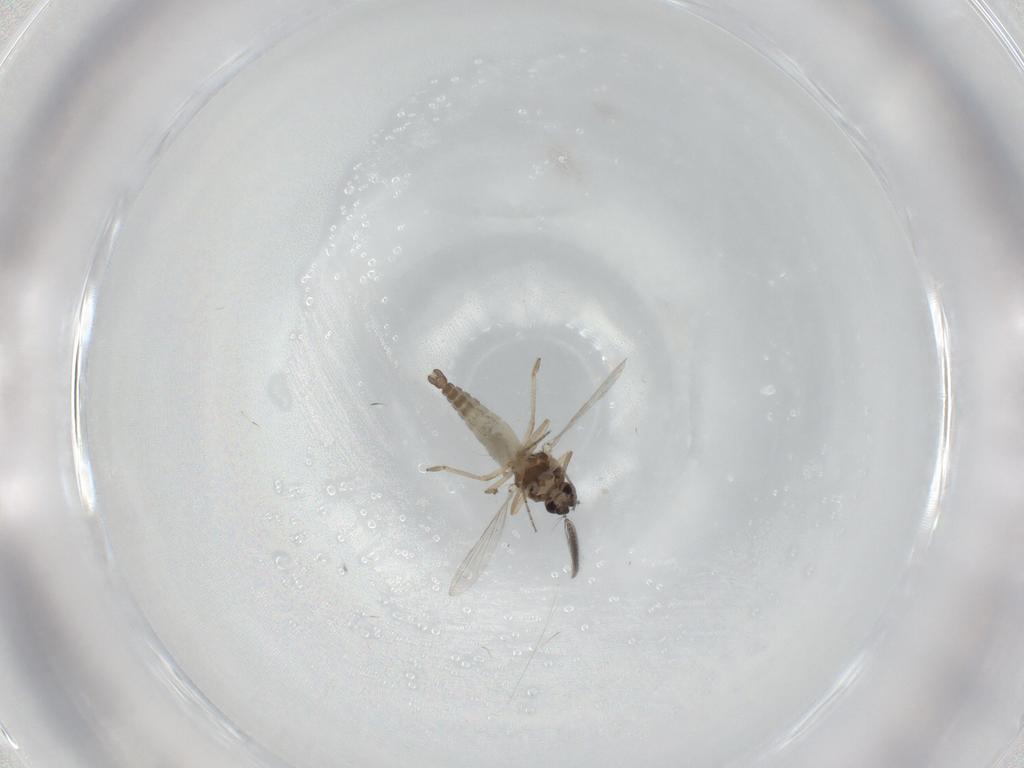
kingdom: Animalia
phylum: Arthropoda
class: Insecta
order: Diptera
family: Ceratopogonidae
